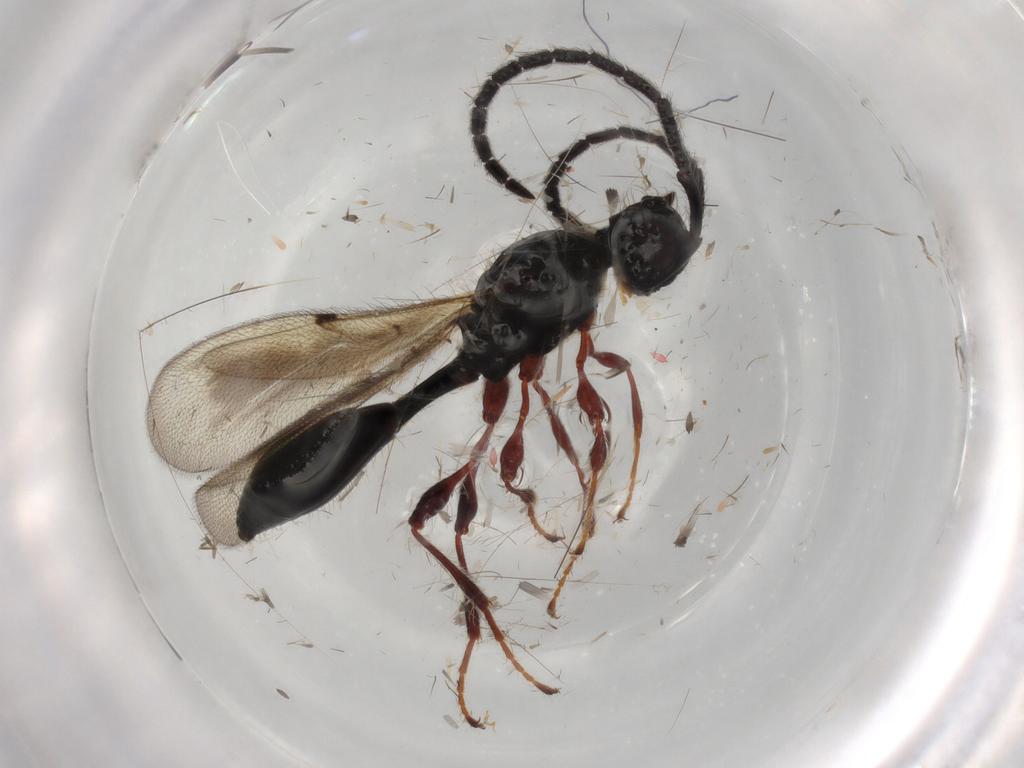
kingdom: Animalia
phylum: Arthropoda
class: Insecta
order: Hymenoptera
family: Diapriidae
